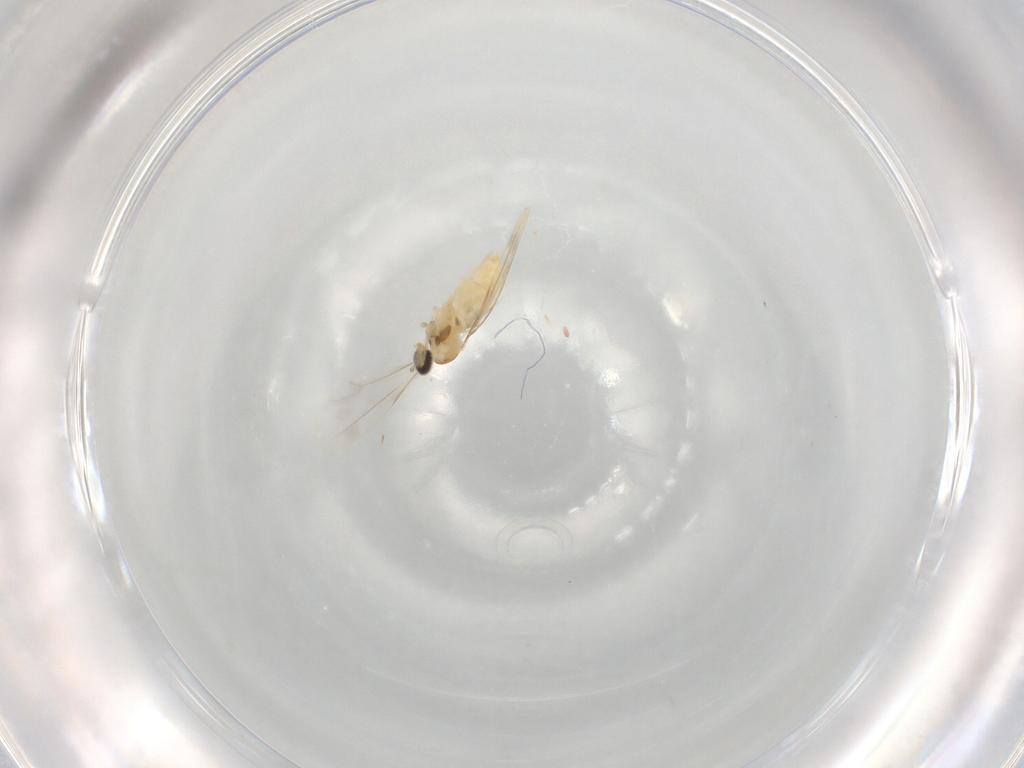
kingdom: Animalia
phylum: Arthropoda
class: Insecta
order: Diptera
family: Cecidomyiidae
